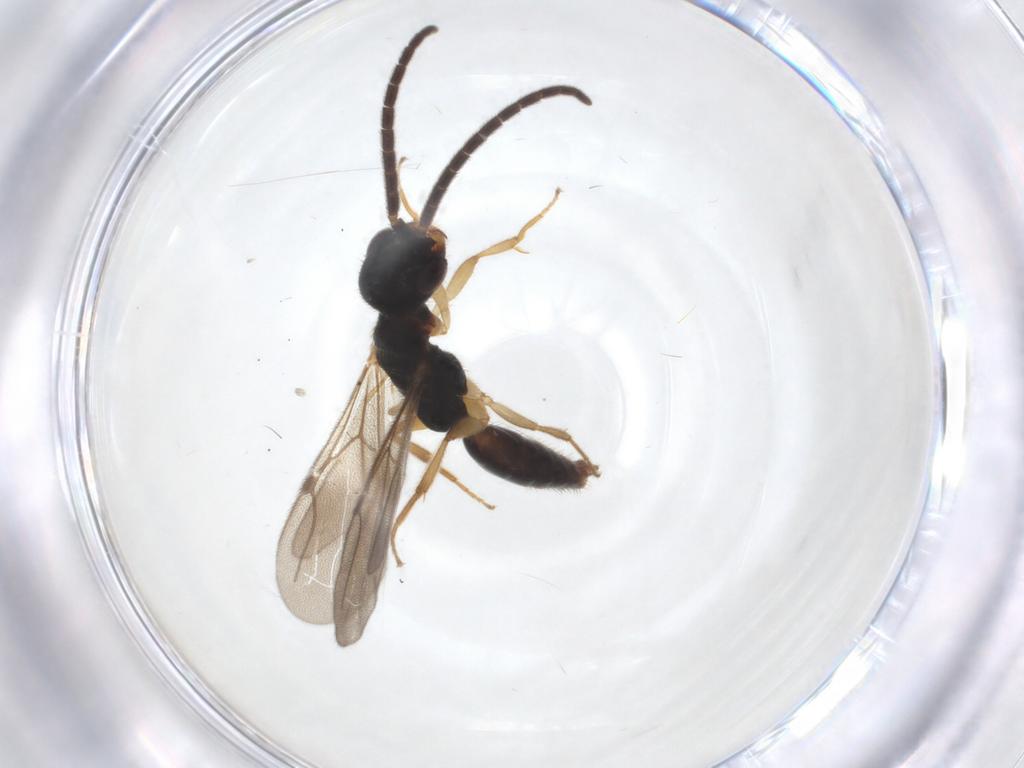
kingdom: Animalia
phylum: Arthropoda
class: Insecta
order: Hymenoptera
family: Bethylidae
